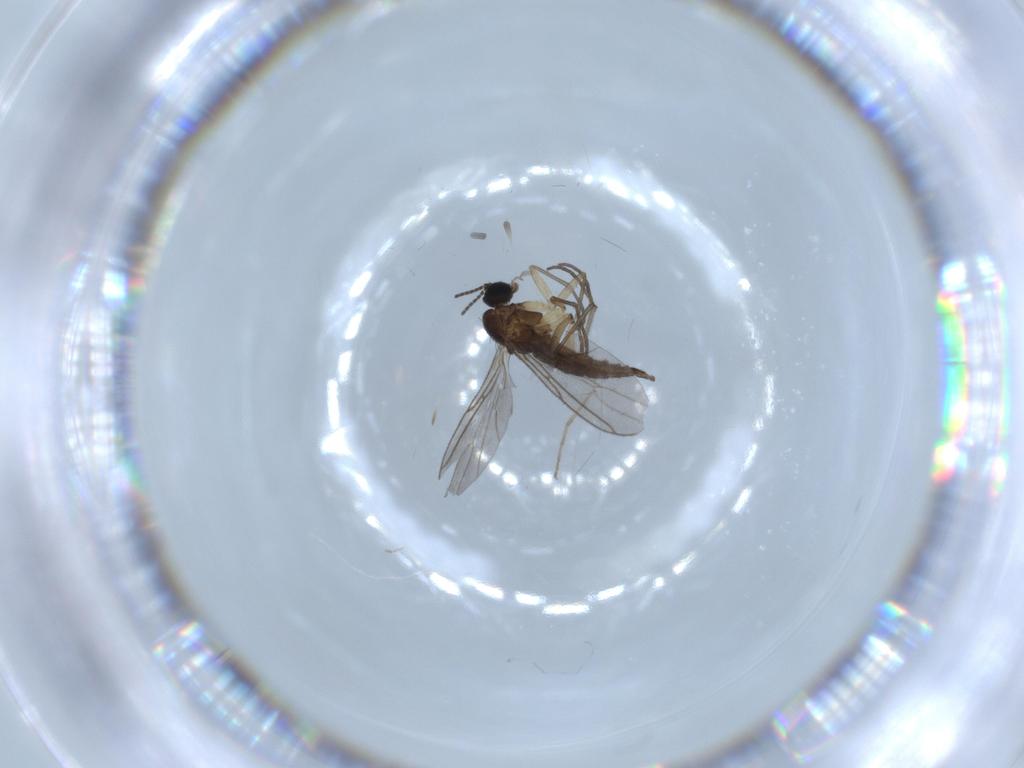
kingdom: Animalia
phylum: Arthropoda
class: Insecta
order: Diptera
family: Sciaridae
